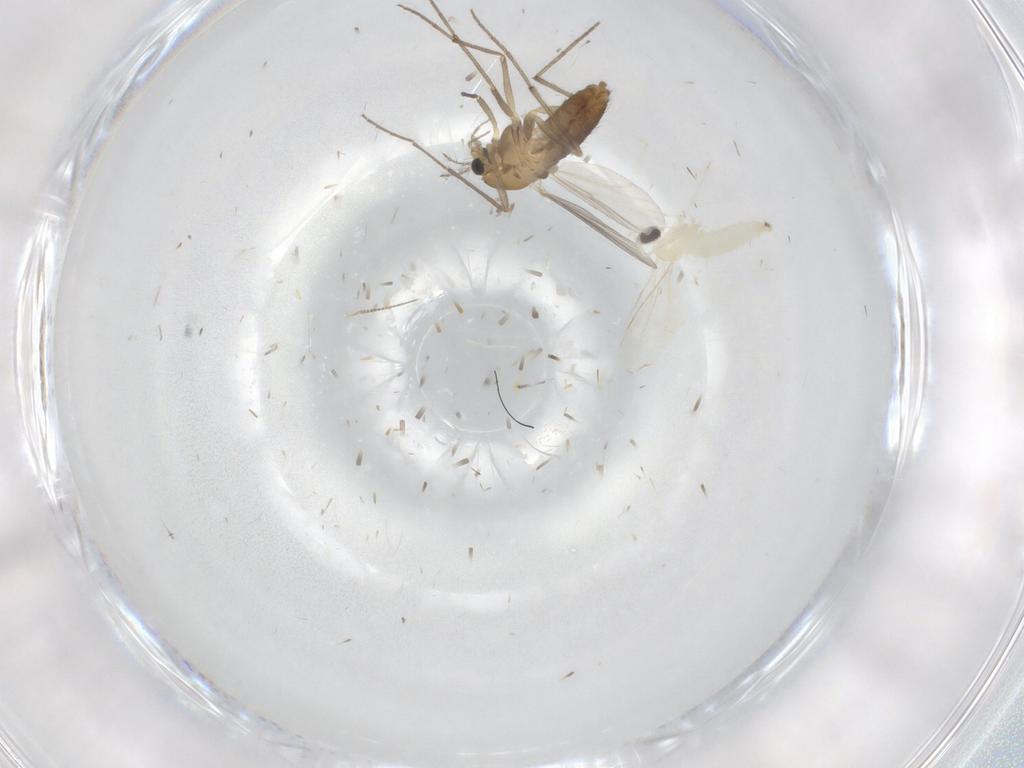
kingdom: Animalia
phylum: Arthropoda
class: Insecta
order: Diptera
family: Cecidomyiidae
